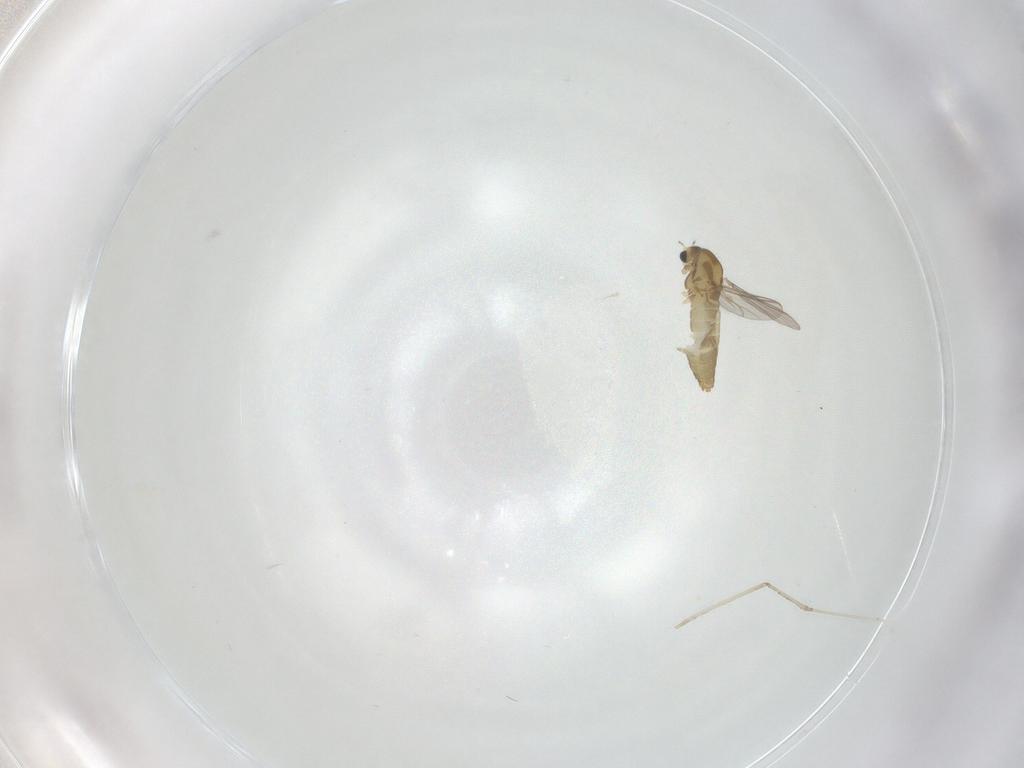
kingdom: Animalia
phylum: Arthropoda
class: Insecta
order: Diptera
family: Chironomidae
